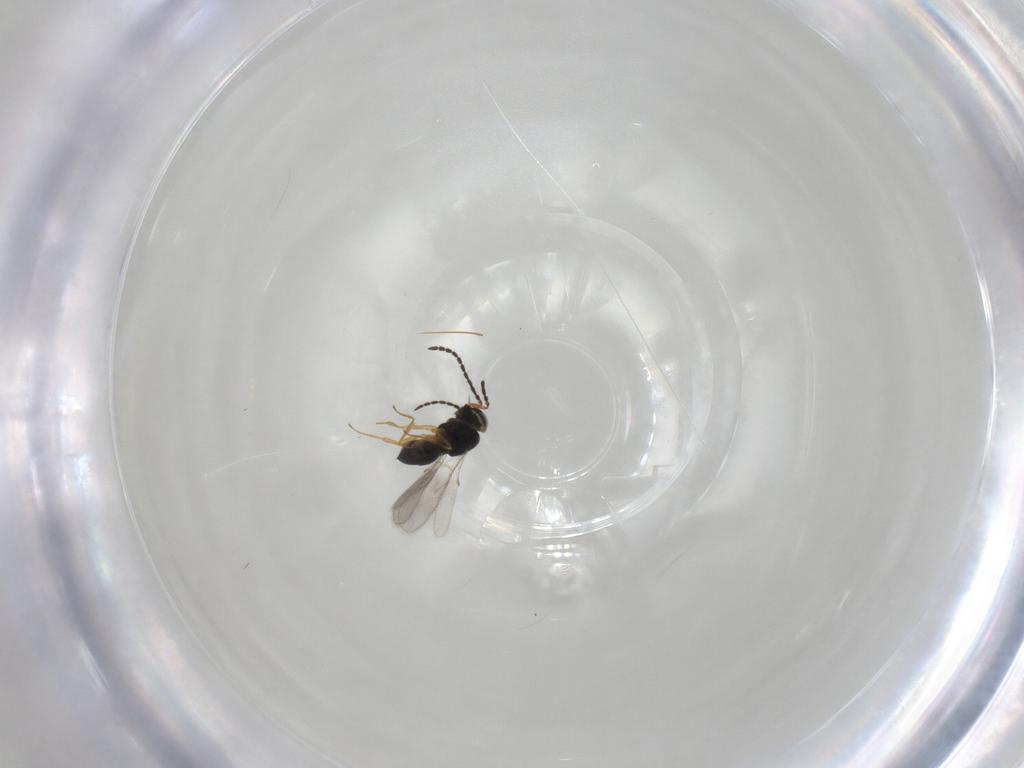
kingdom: Animalia
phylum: Arthropoda
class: Insecta
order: Hymenoptera
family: Scelionidae
